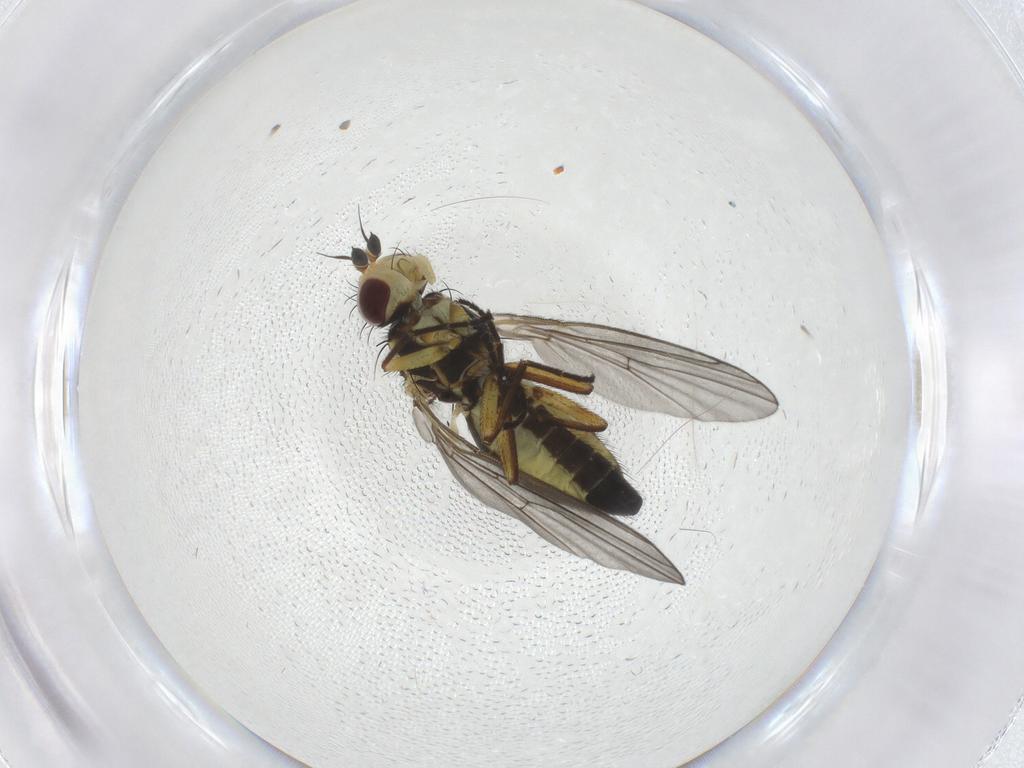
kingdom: Animalia
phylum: Arthropoda
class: Insecta
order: Diptera
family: Agromyzidae
